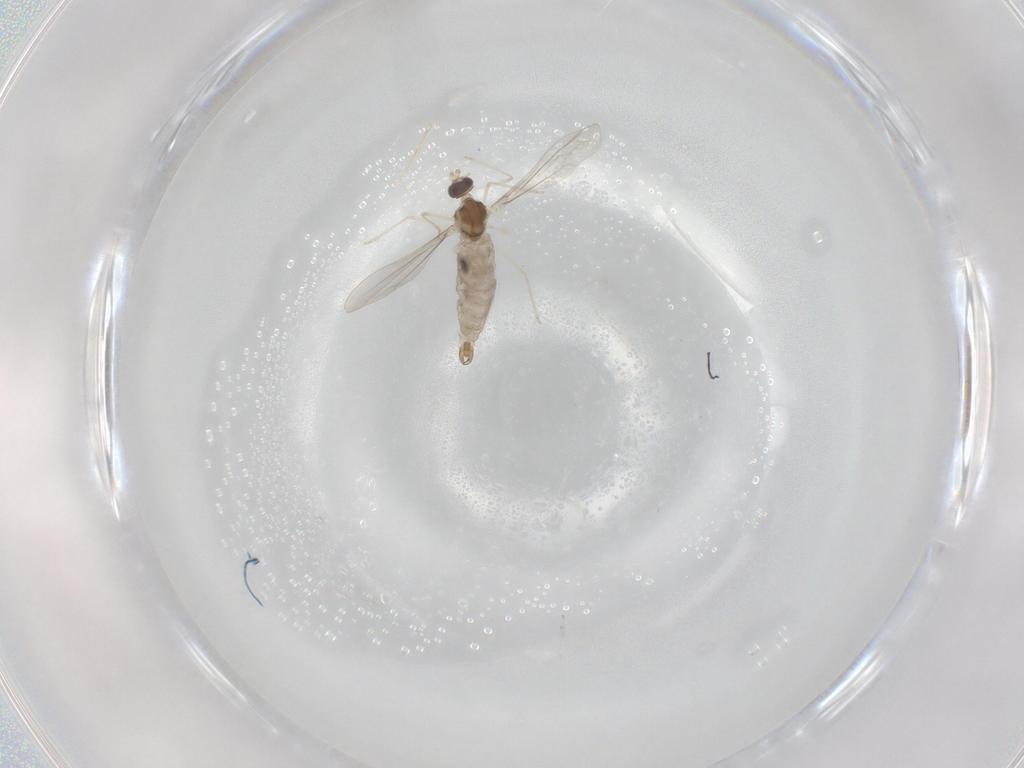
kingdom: Animalia
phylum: Arthropoda
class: Insecta
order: Diptera
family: Cecidomyiidae
